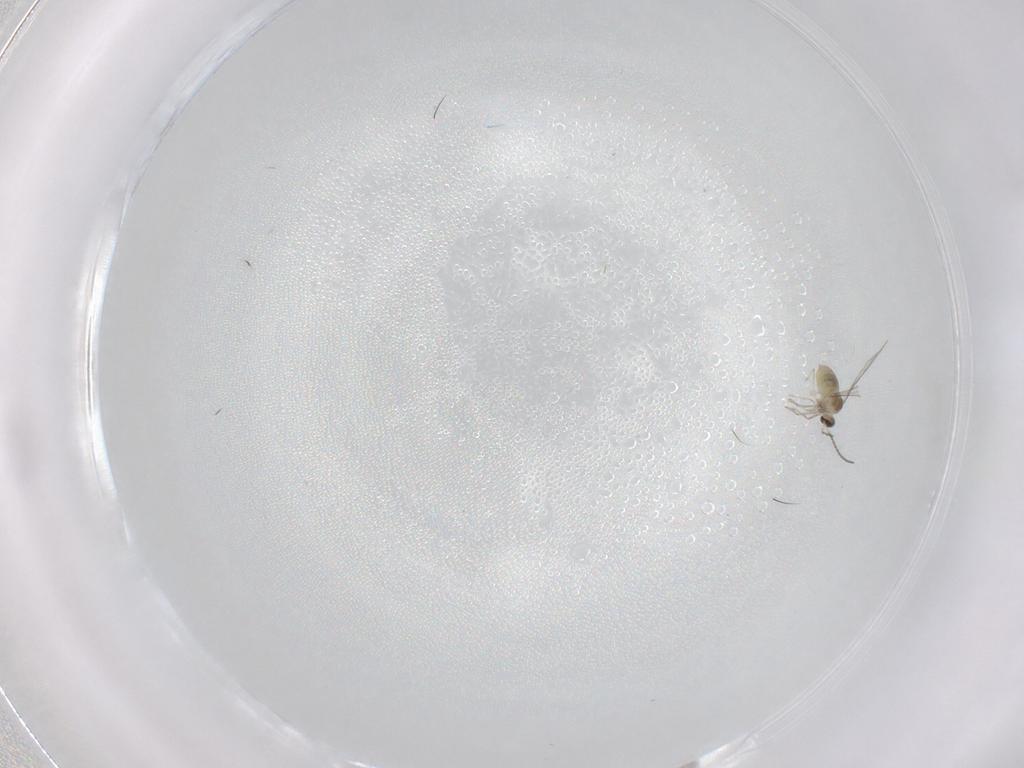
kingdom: Animalia
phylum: Arthropoda
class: Insecta
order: Diptera
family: Cecidomyiidae
